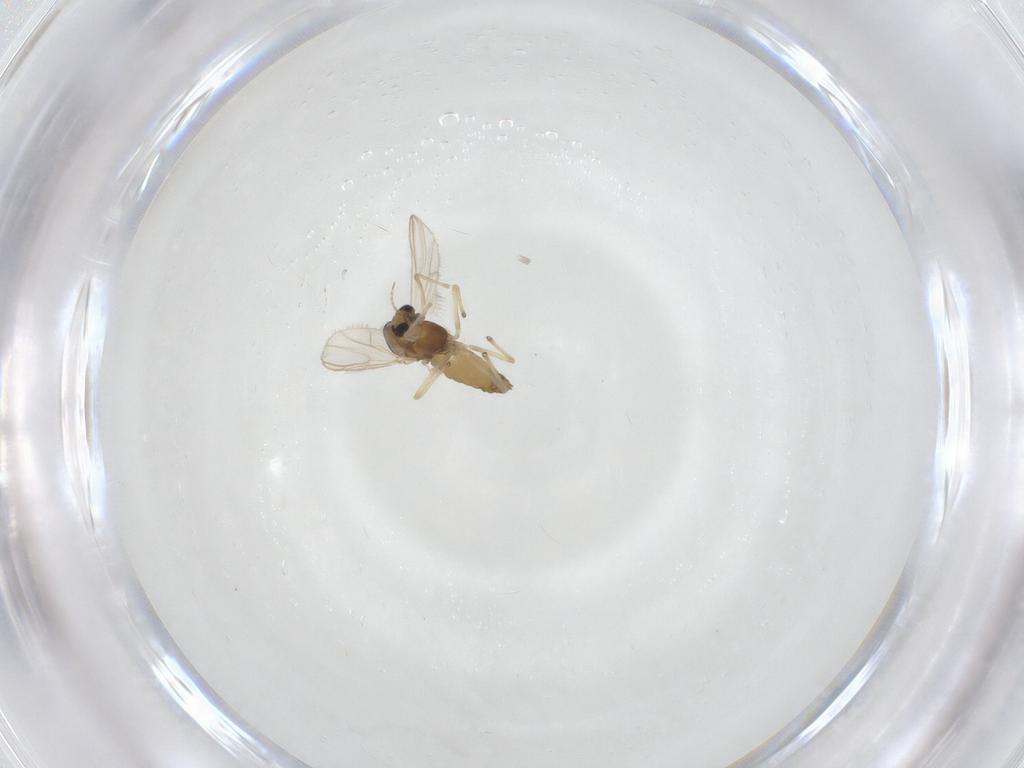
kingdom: Animalia
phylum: Arthropoda
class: Insecta
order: Diptera
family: Chironomidae
